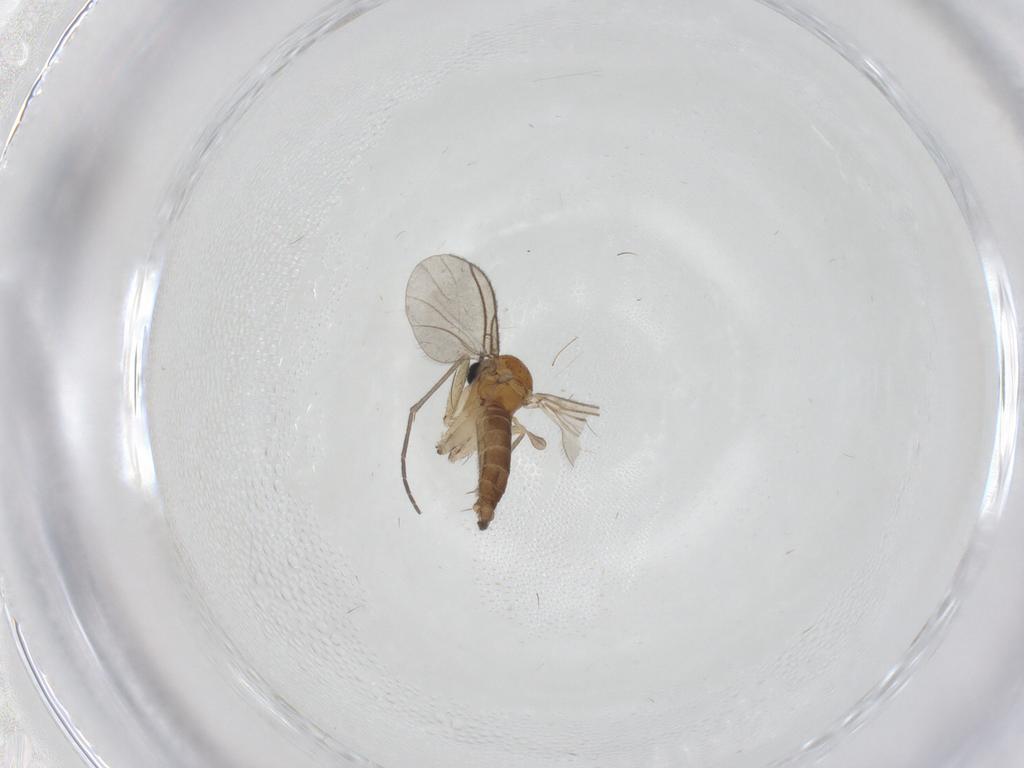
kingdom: Animalia
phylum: Arthropoda
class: Insecta
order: Diptera
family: Sciaridae
